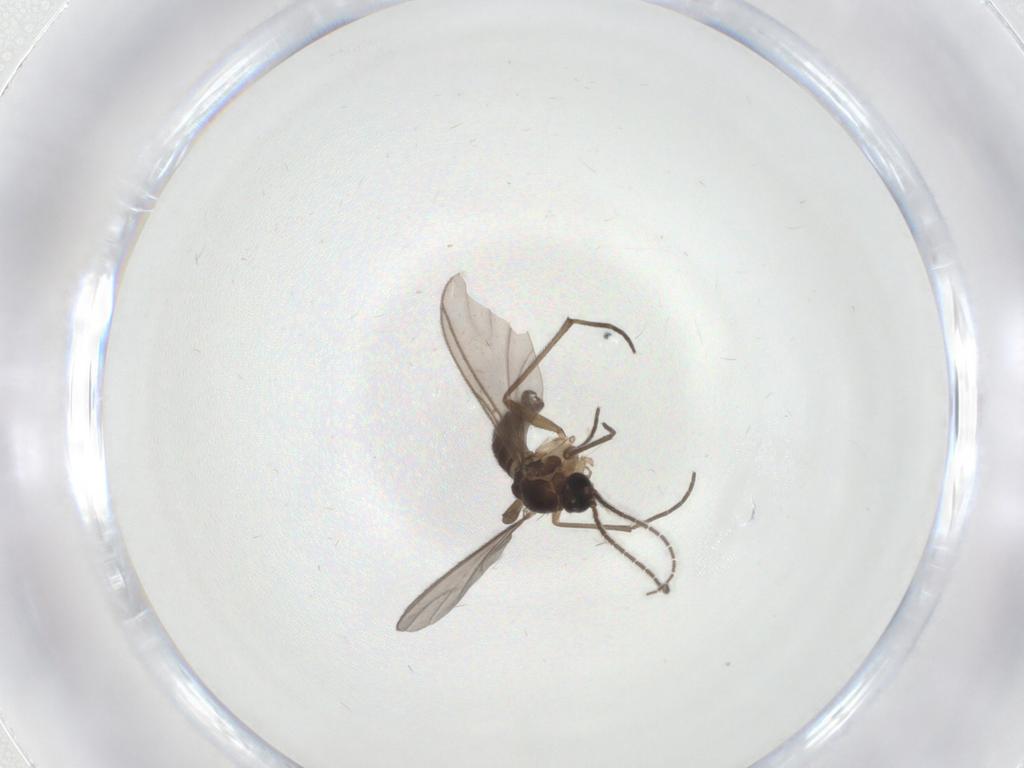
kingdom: Animalia
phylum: Arthropoda
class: Insecta
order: Diptera
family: Sciaridae
